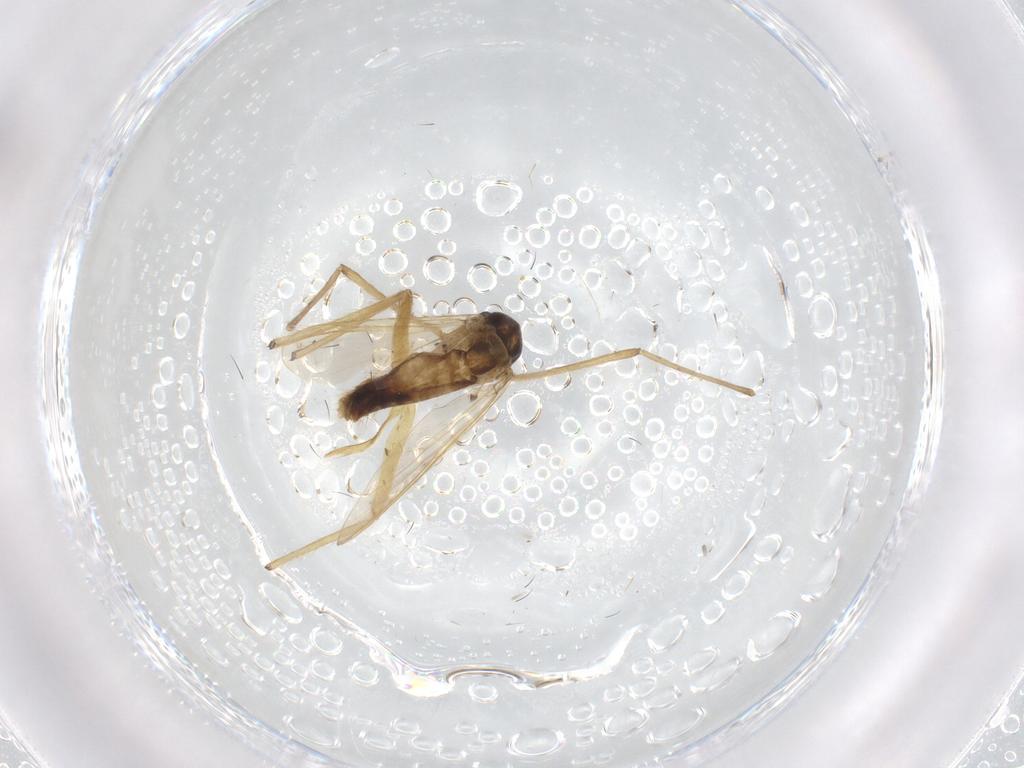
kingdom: Animalia
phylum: Arthropoda
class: Insecta
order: Diptera
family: Chironomidae
